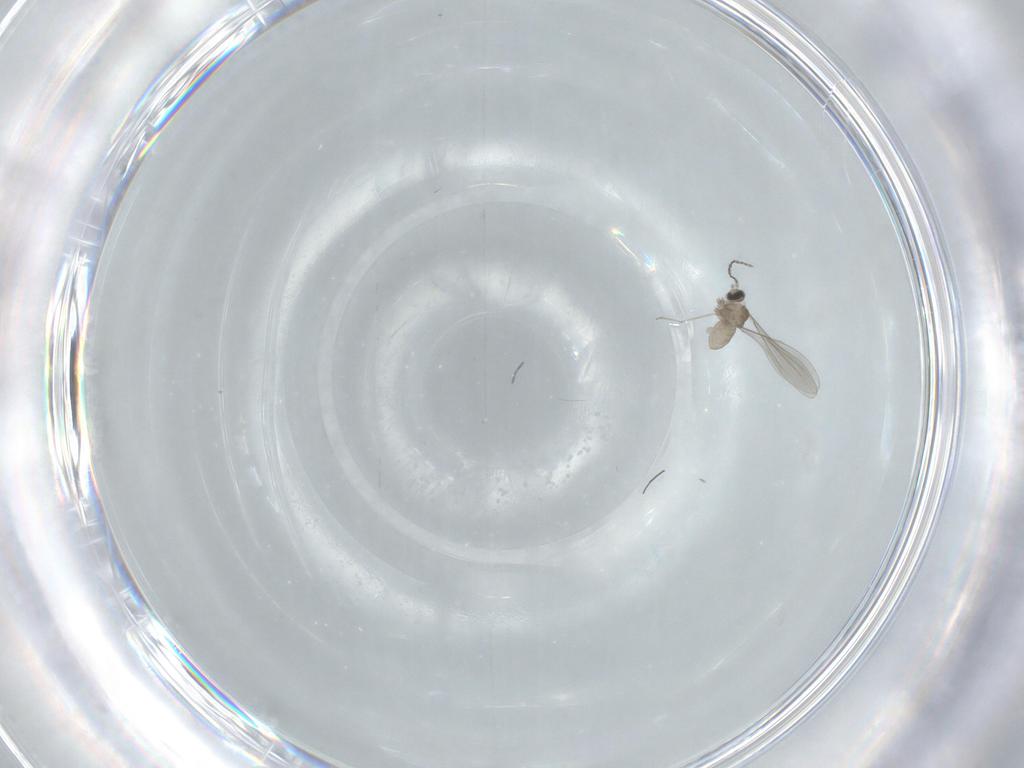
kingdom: Animalia
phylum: Arthropoda
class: Insecta
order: Diptera
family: Cecidomyiidae
